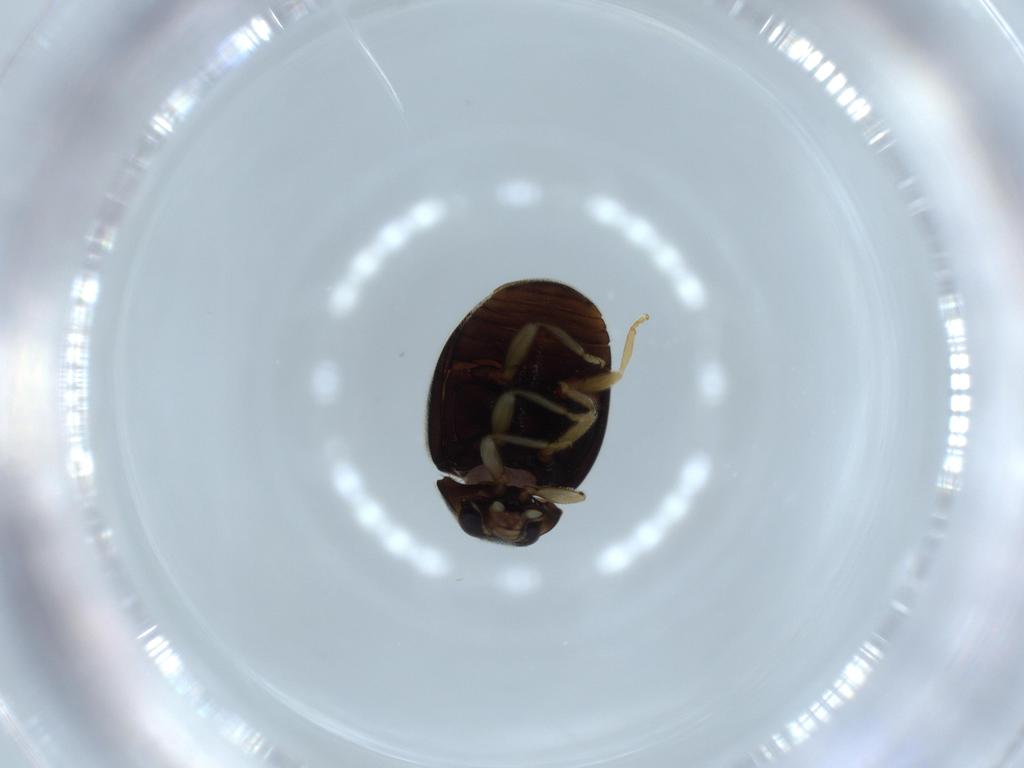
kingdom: Animalia
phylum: Arthropoda
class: Insecta
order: Coleoptera
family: Coccinellidae
